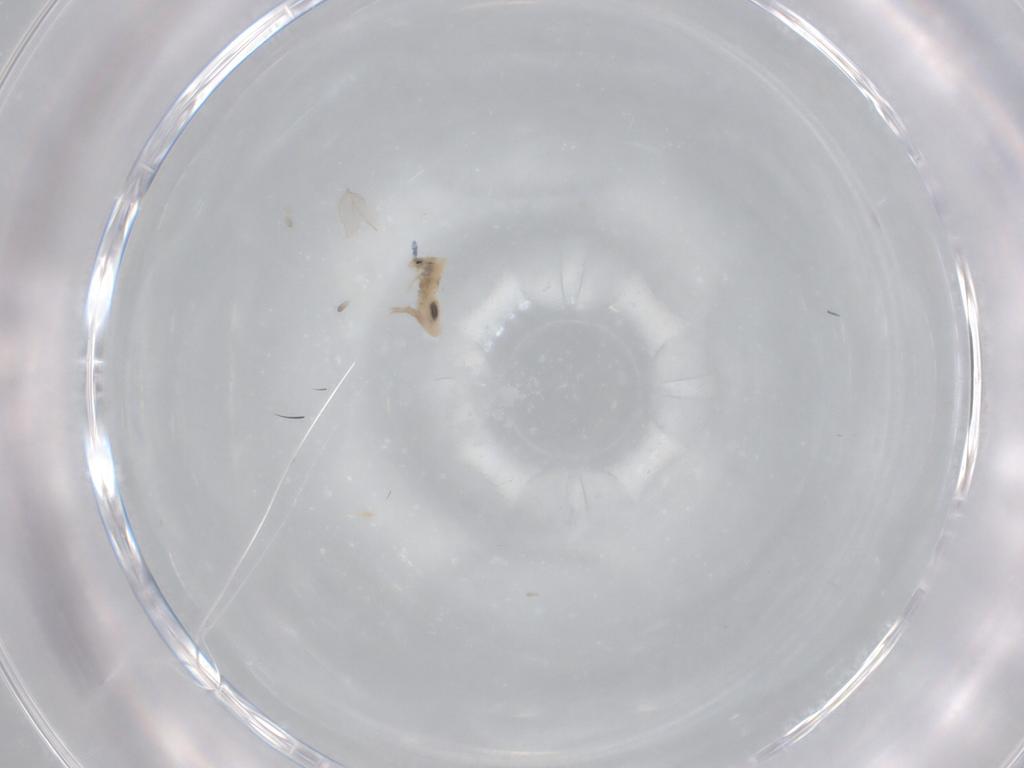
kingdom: Animalia
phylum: Arthropoda
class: Collembola
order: Entomobryomorpha
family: Entomobryidae
